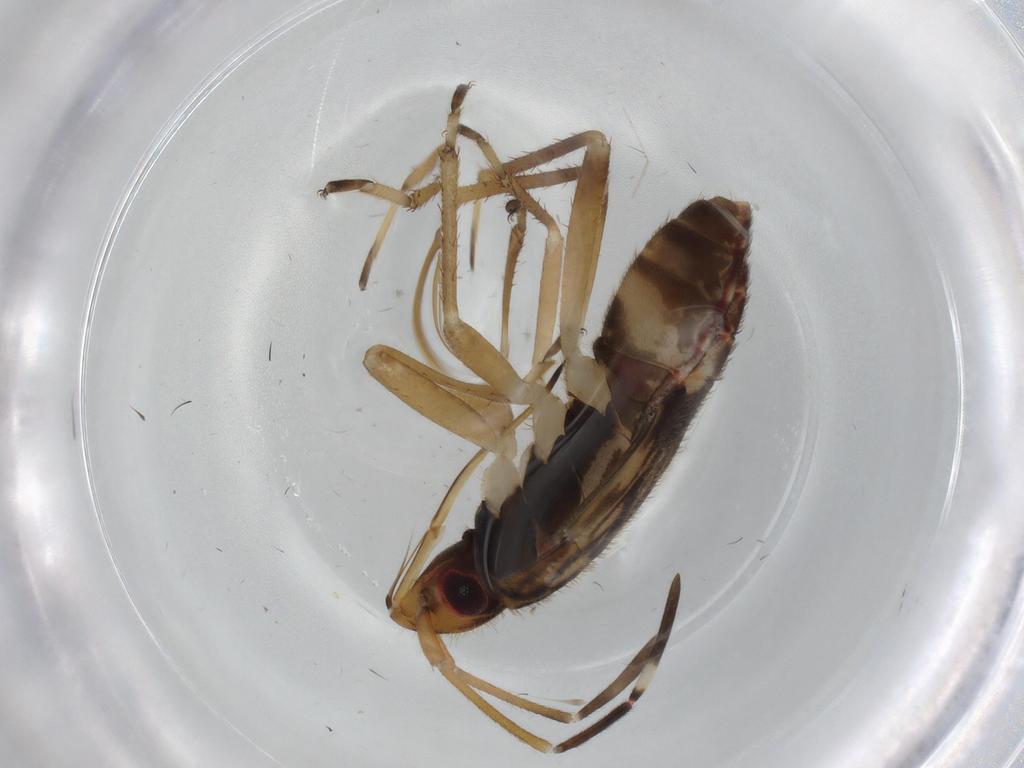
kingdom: Animalia
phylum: Arthropoda
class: Insecta
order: Hemiptera
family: Rhyparochromidae
